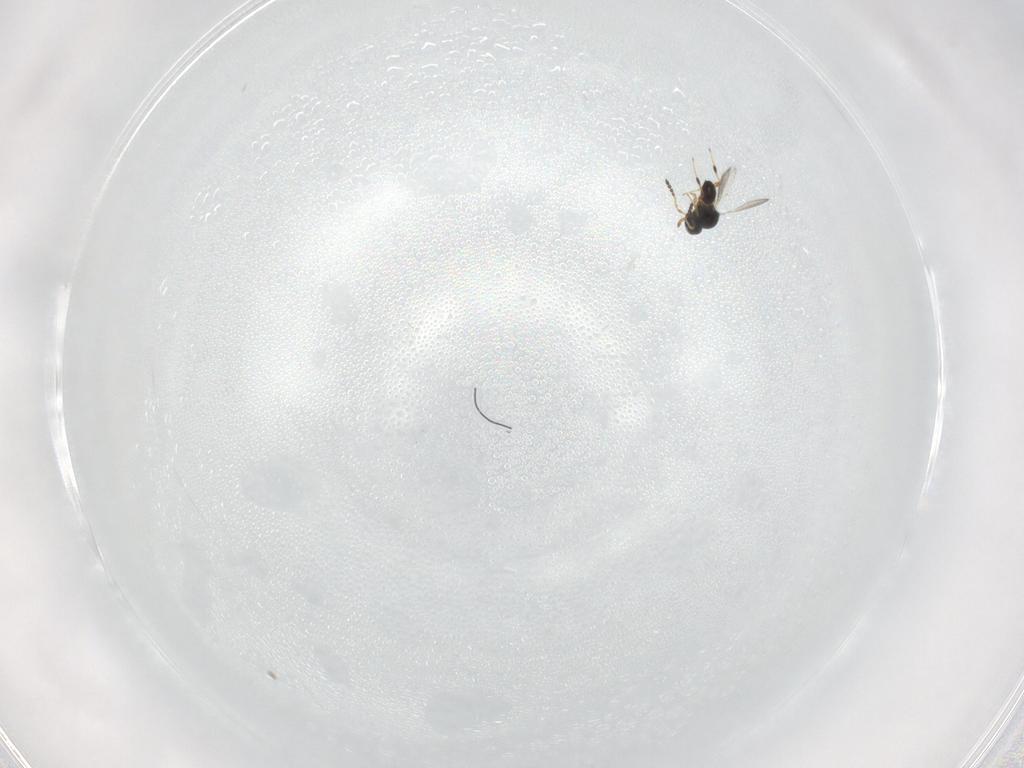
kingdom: Animalia
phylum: Arthropoda
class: Insecta
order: Hymenoptera
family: Platygastridae
